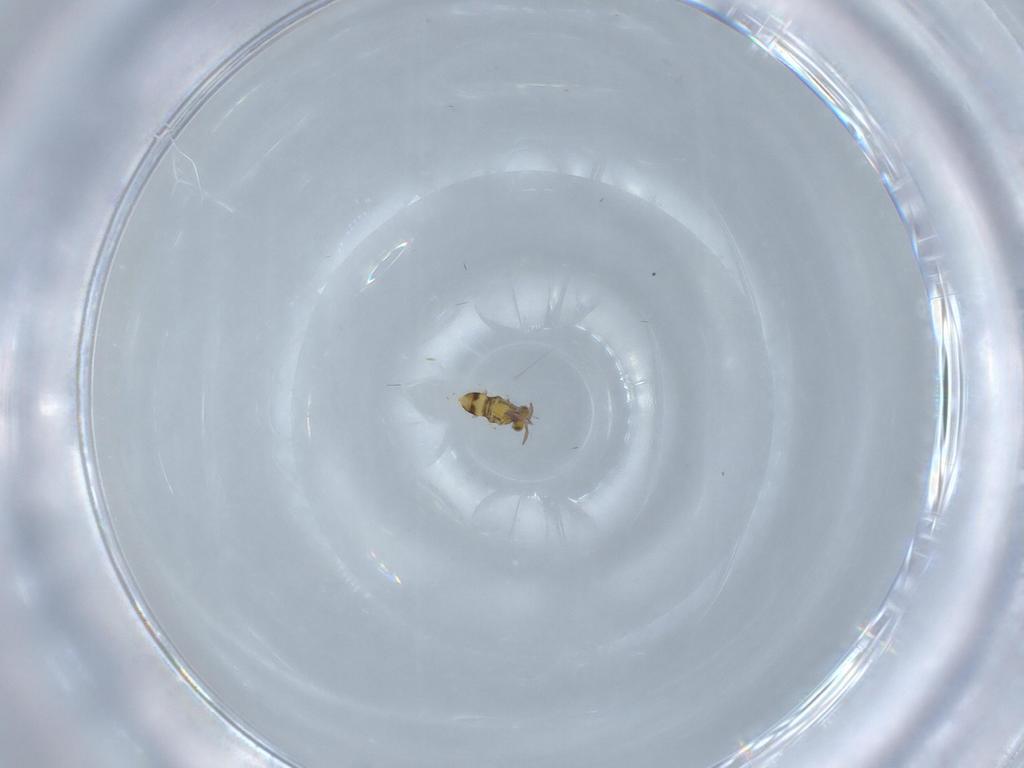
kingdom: Animalia
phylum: Arthropoda
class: Insecta
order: Hymenoptera
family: Aphelinidae
